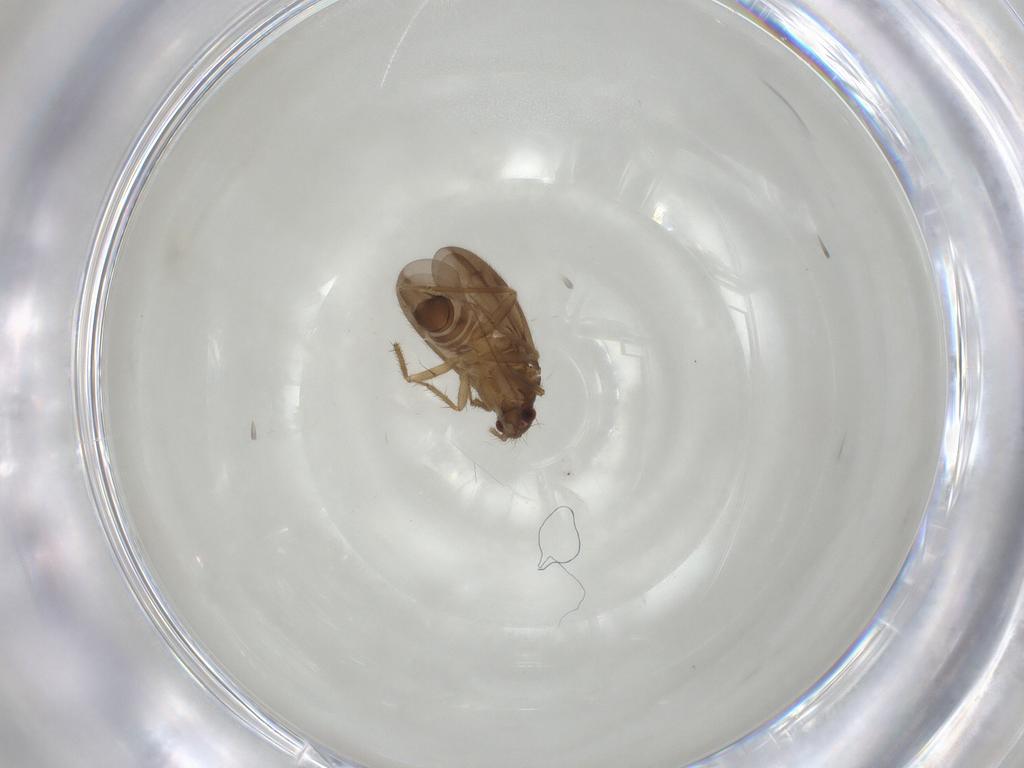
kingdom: Animalia
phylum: Arthropoda
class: Insecta
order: Hemiptera
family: Ceratocombidae
